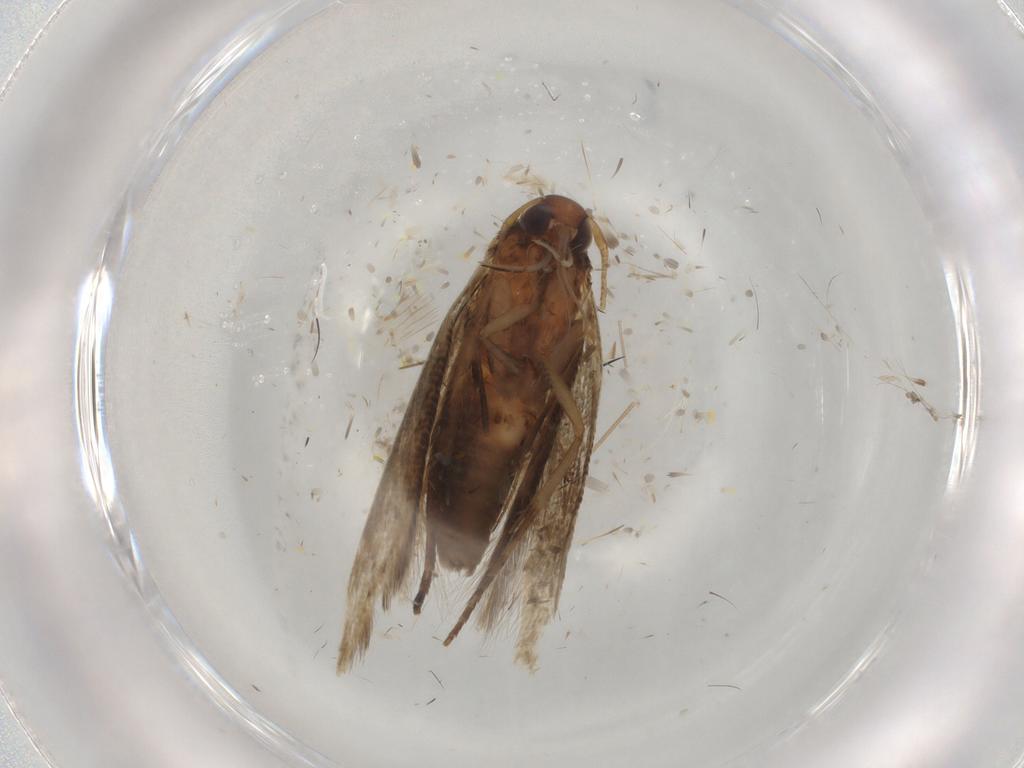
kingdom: Animalia
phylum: Arthropoda
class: Insecta
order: Lepidoptera
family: Cosmopterigidae
